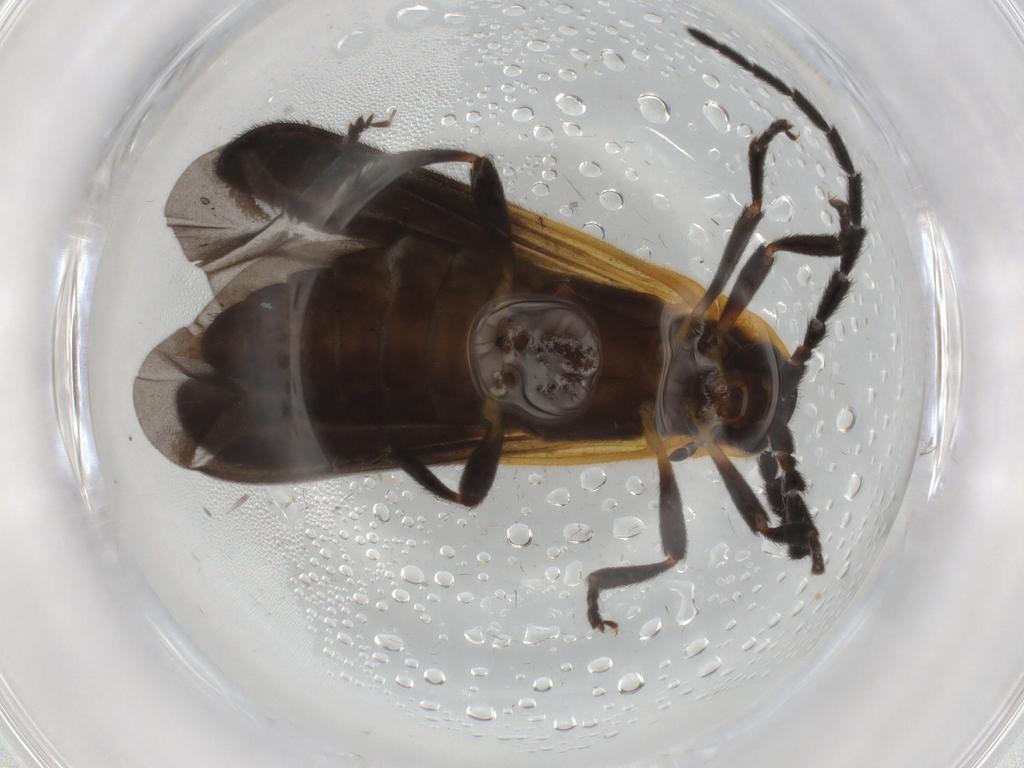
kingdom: Animalia
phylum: Arthropoda
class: Insecta
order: Coleoptera
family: Lycidae
